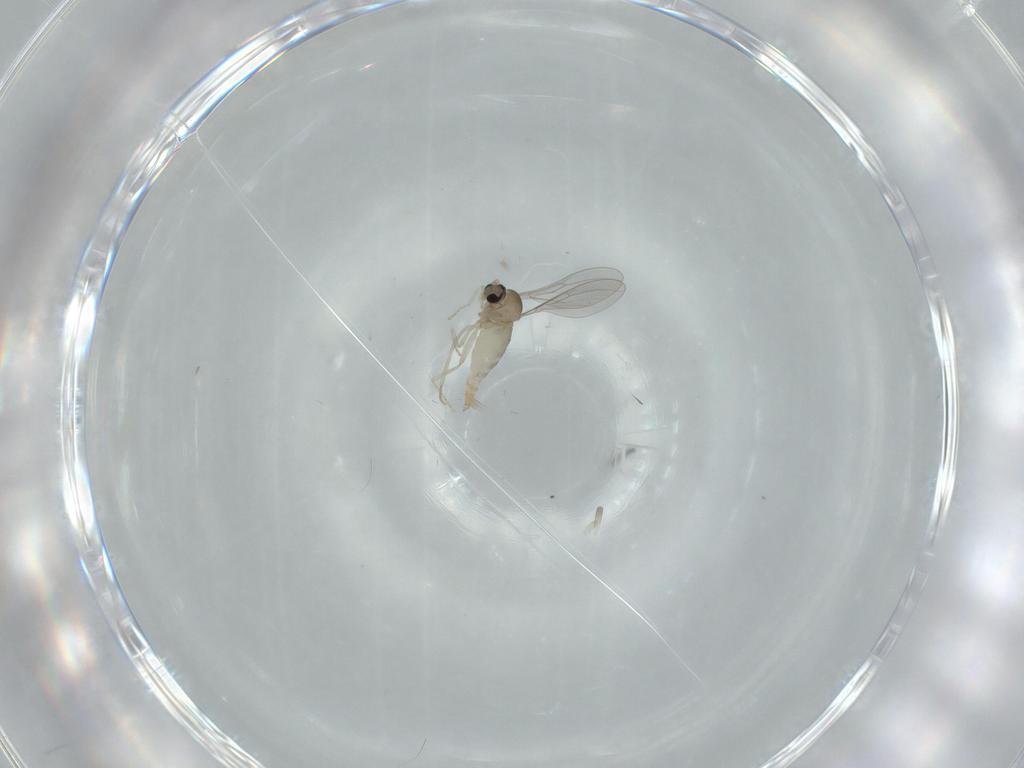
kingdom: Animalia
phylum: Arthropoda
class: Insecta
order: Diptera
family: Cecidomyiidae
